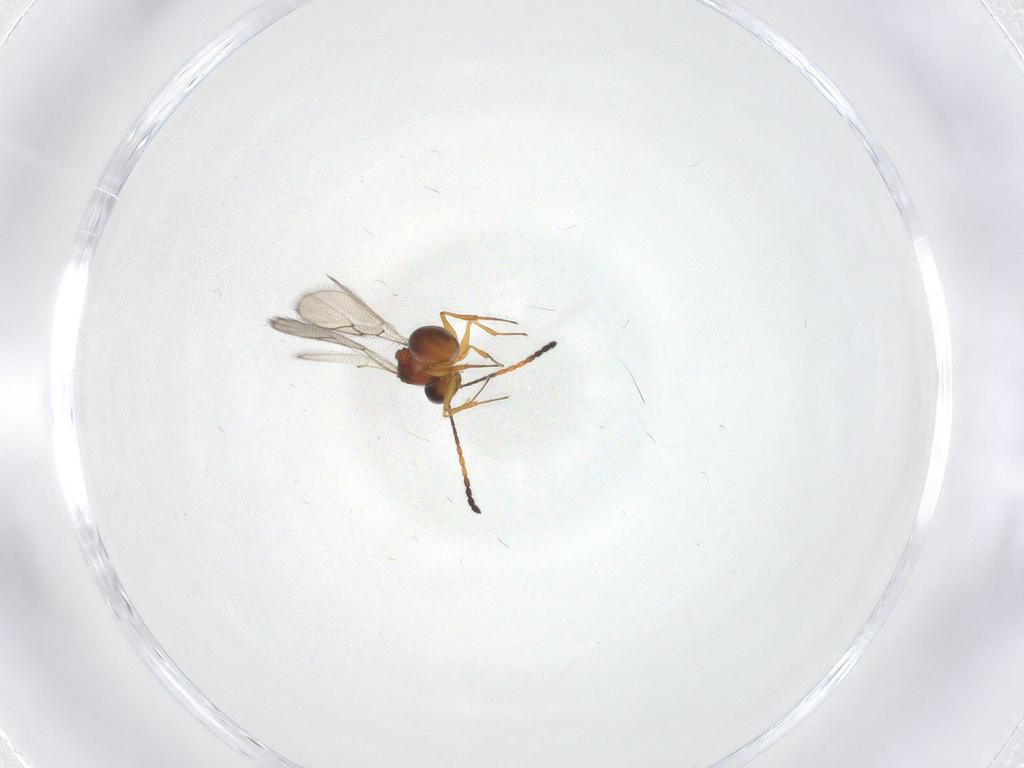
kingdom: Animalia
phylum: Arthropoda
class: Insecta
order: Hymenoptera
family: Figitidae
